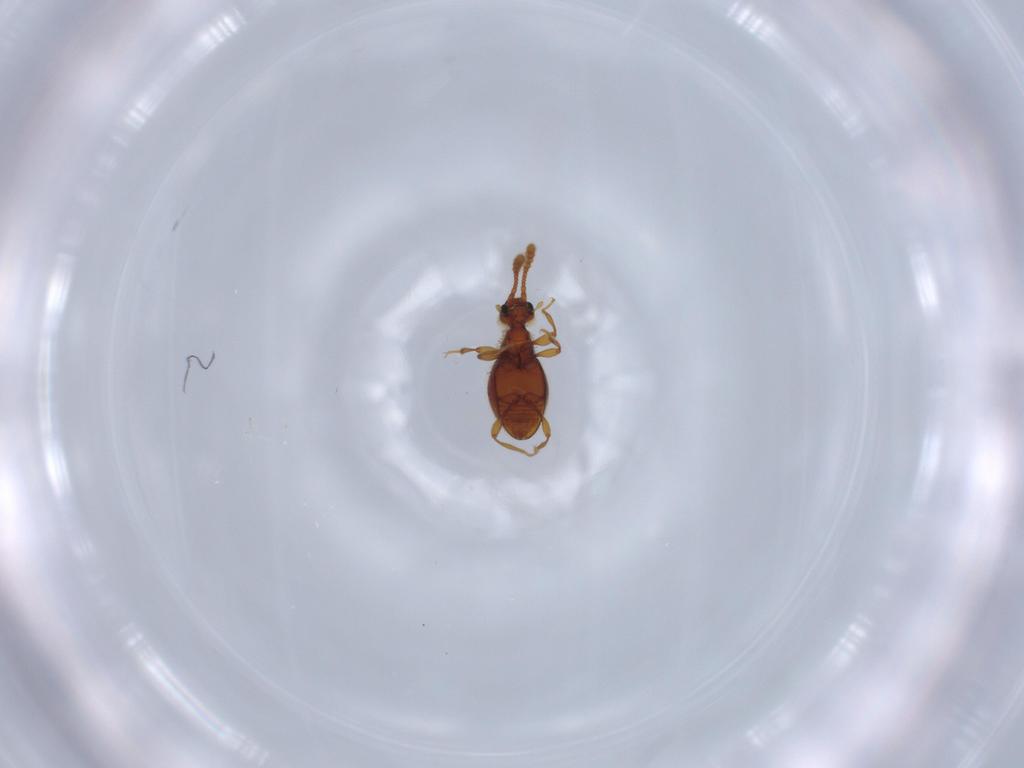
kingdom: Animalia
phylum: Arthropoda
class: Insecta
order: Coleoptera
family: Staphylinidae
